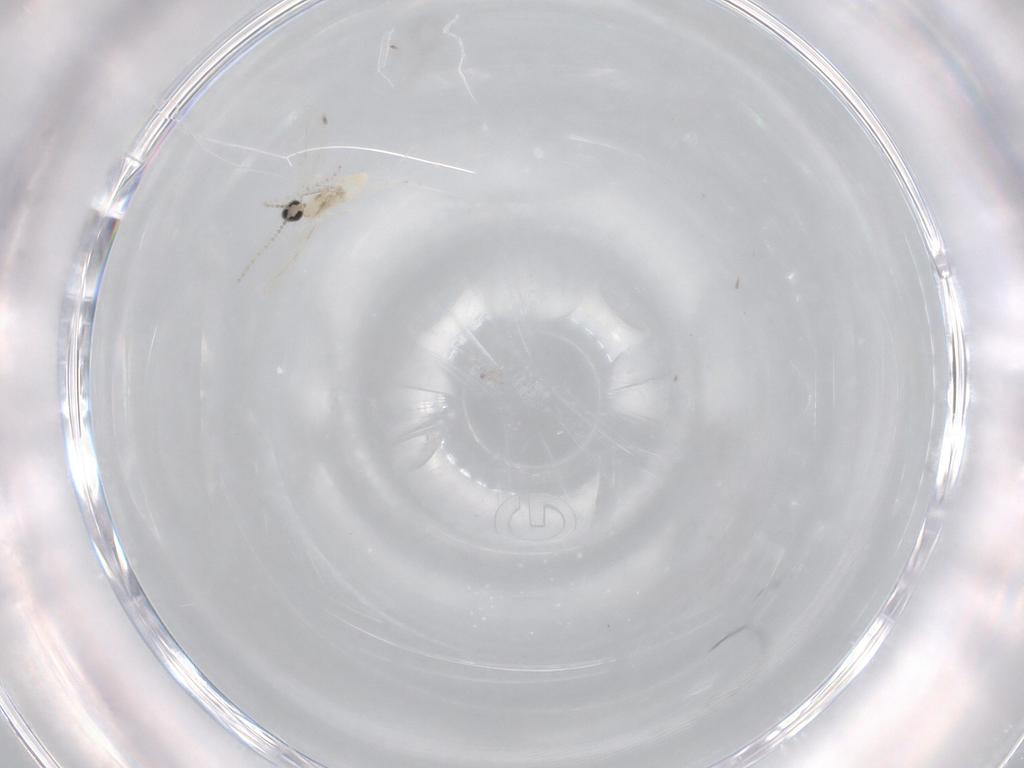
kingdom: Animalia
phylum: Arthropoda
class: Insecta
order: Diptera
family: Cecidomyiidae
